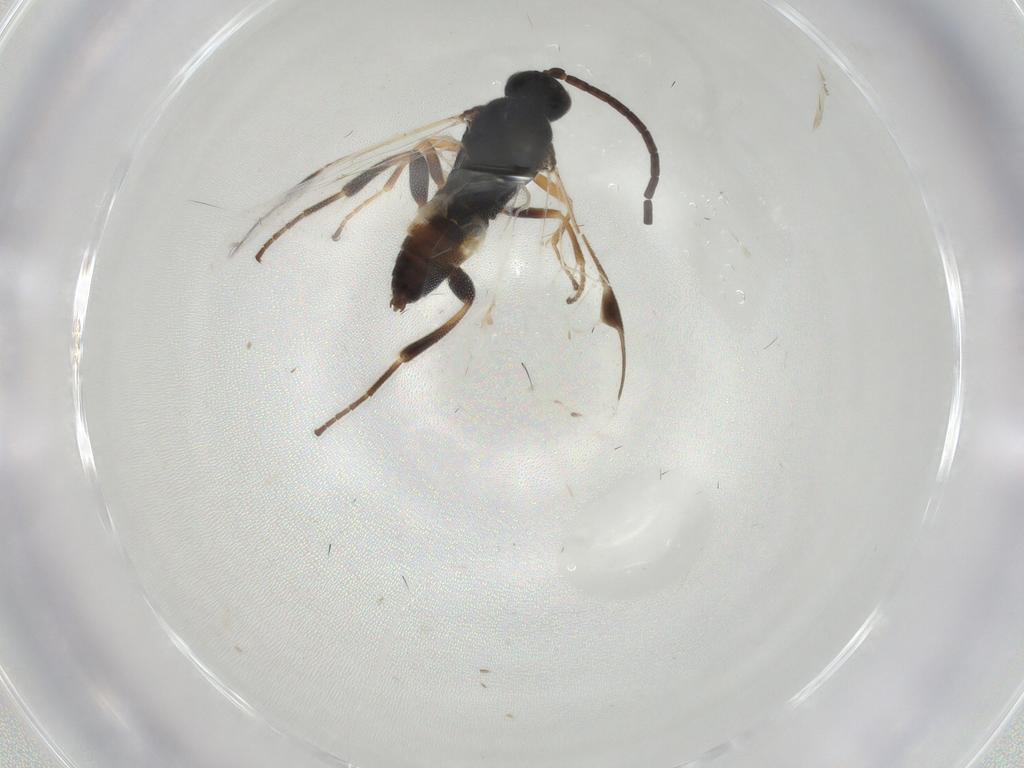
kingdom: Animalia
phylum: Arthropoda
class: Insecta
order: Hymenoptera
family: Braconidae
